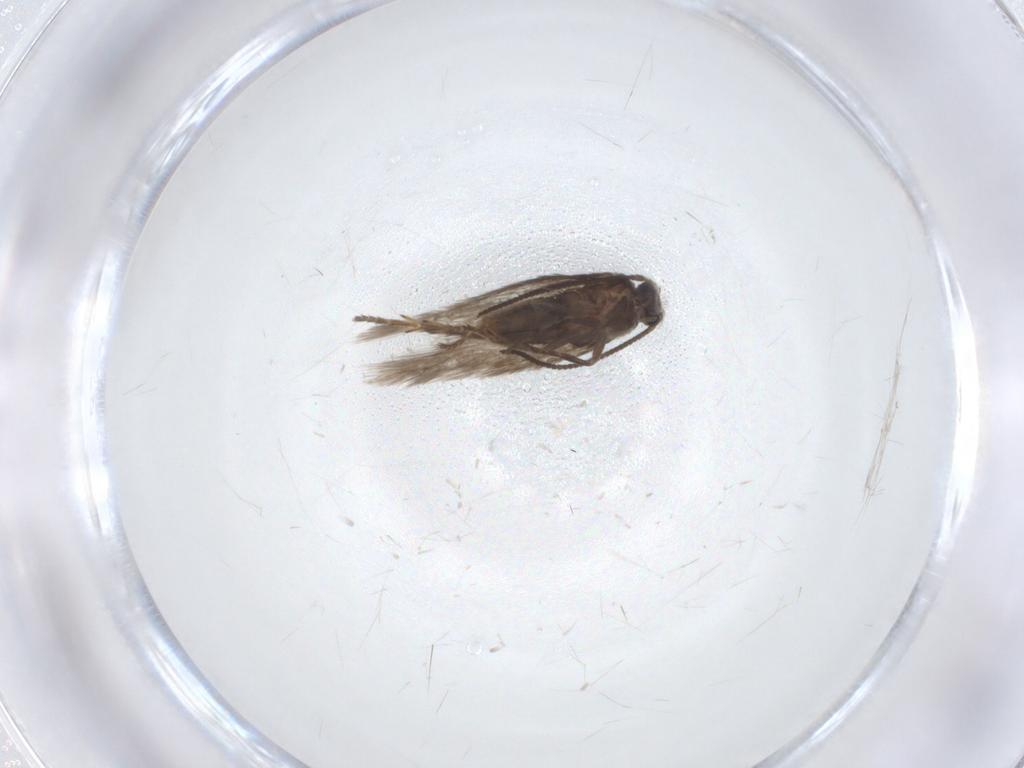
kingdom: Animalia
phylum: Arthropoda
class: Insecta
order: Lepidoptera
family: Nepticulidae
